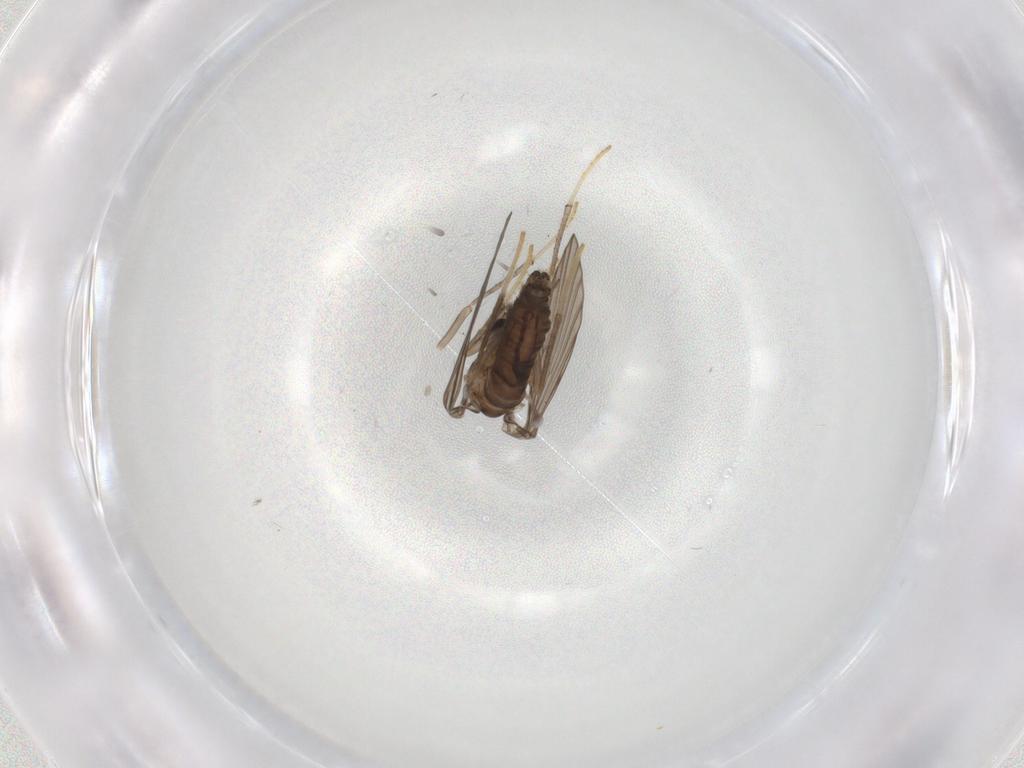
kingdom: Animalia
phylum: Arthropoda
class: Insecta
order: Diptera
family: Psychodidae
